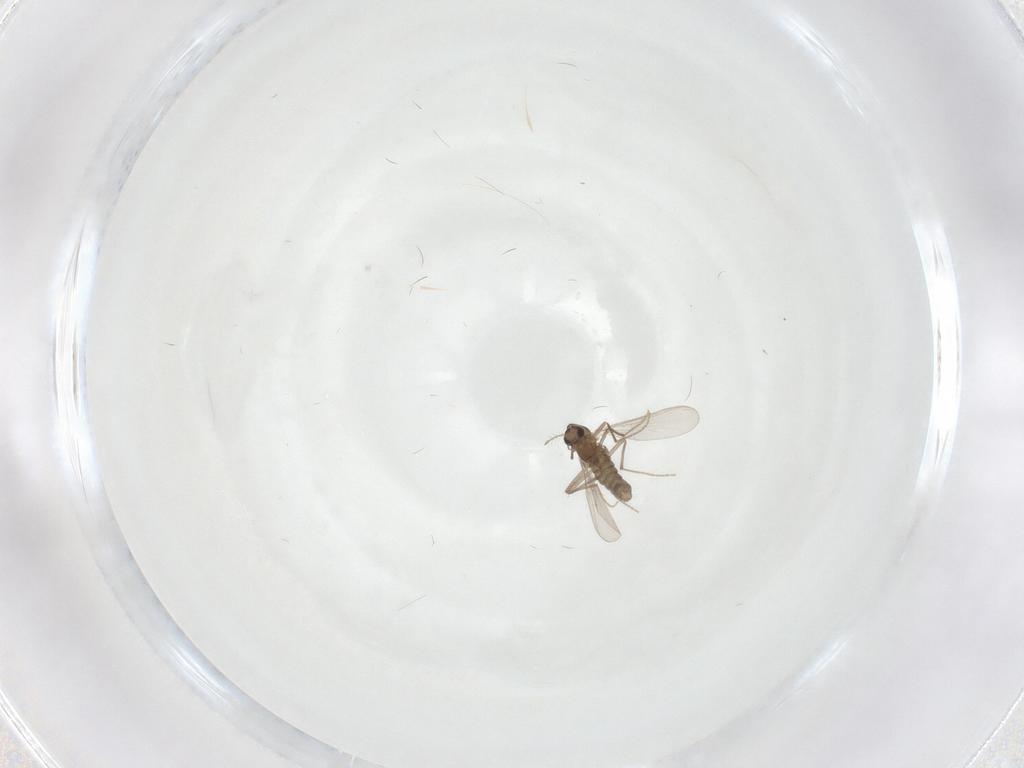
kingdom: Animalia
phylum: Arthropoda
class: Insecta
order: Diptera
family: Chironomidae
